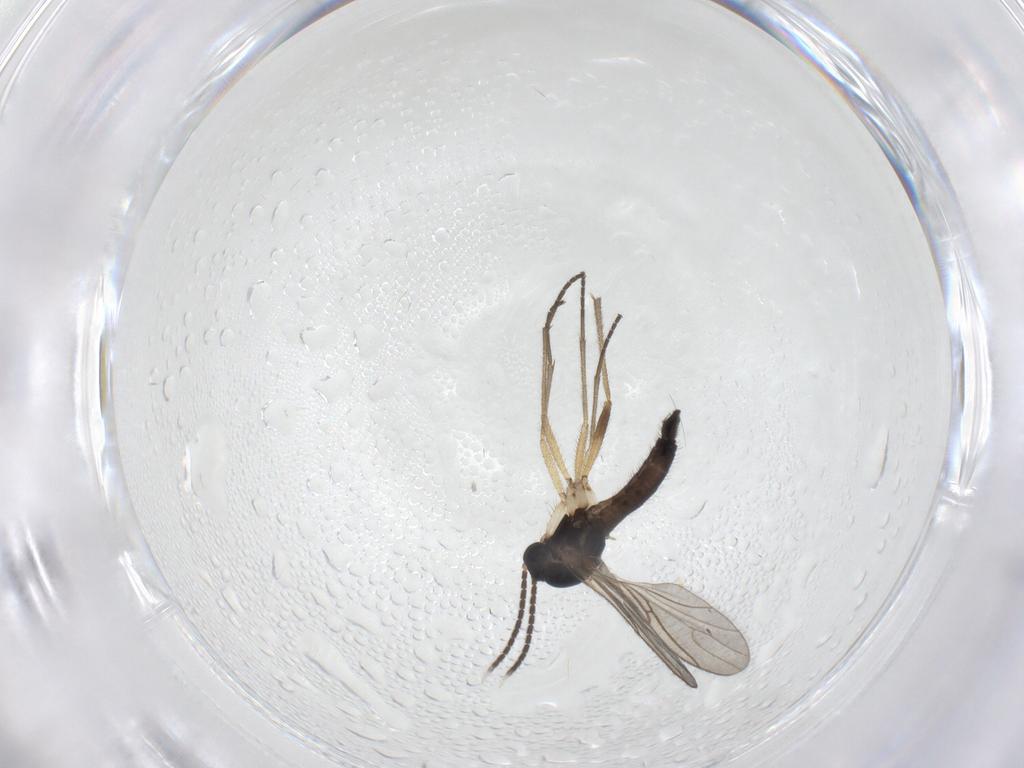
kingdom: Animalia
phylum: Arthropoda
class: Insecta
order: Diptera
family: Sciaridae
